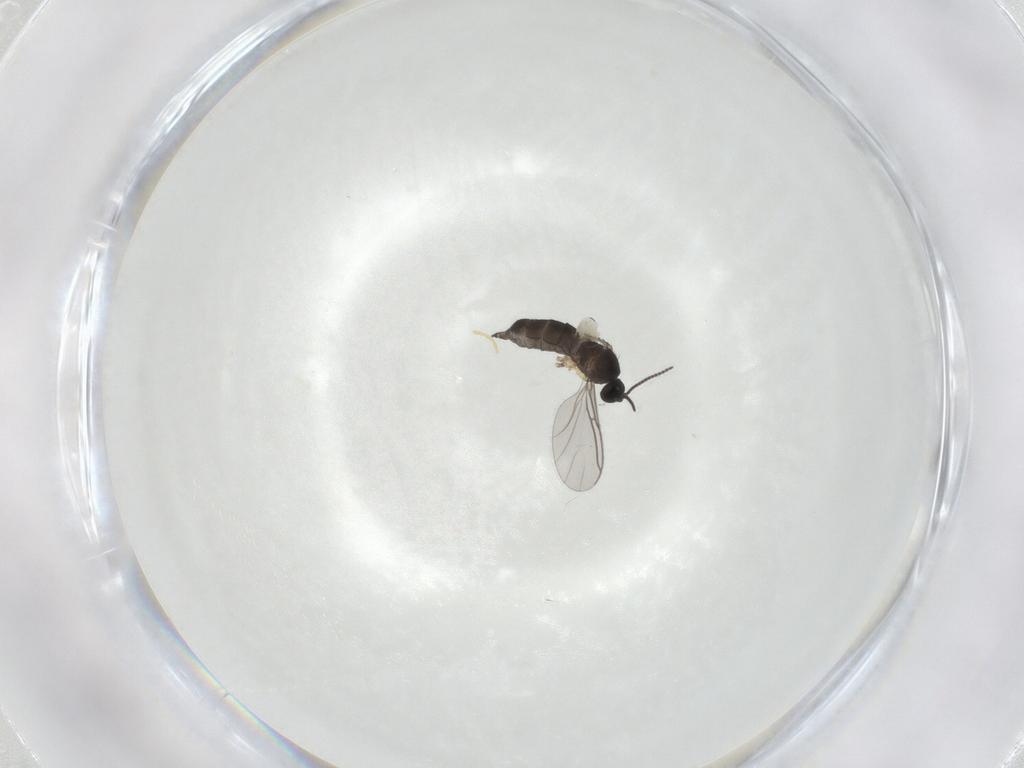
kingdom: Animalia
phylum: Arthropoda
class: Insecta
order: Diptera
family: Sciaridae
